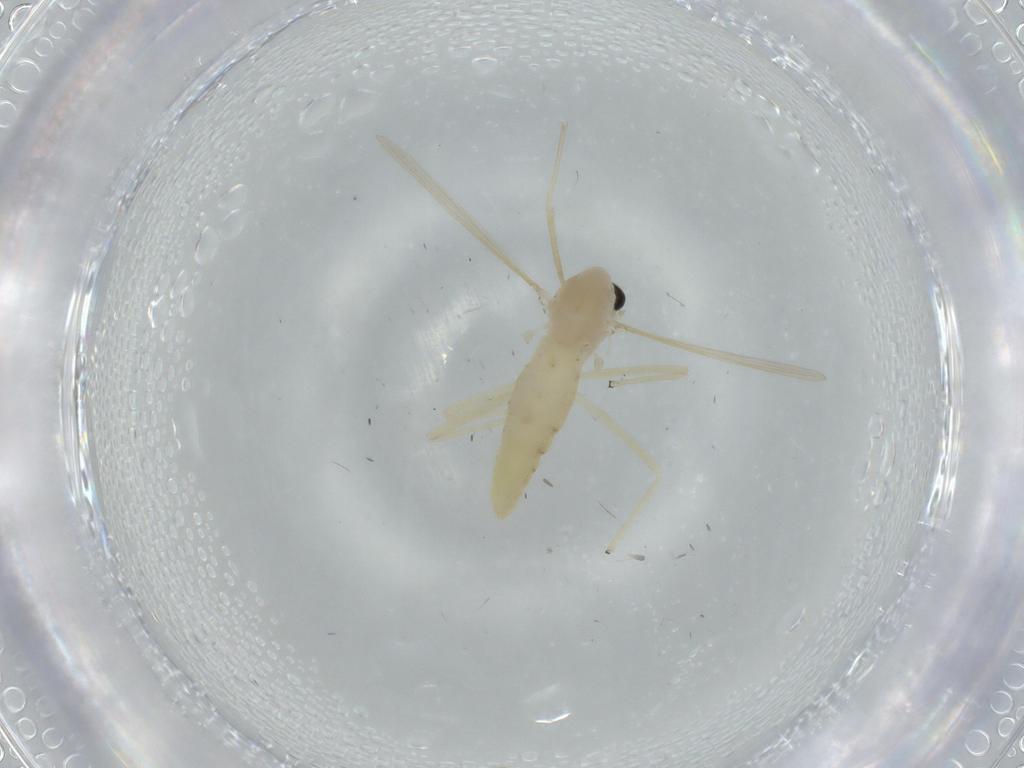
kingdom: Animalia
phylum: Arthropoda
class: Insecta
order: Diptera
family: Chironomidae
